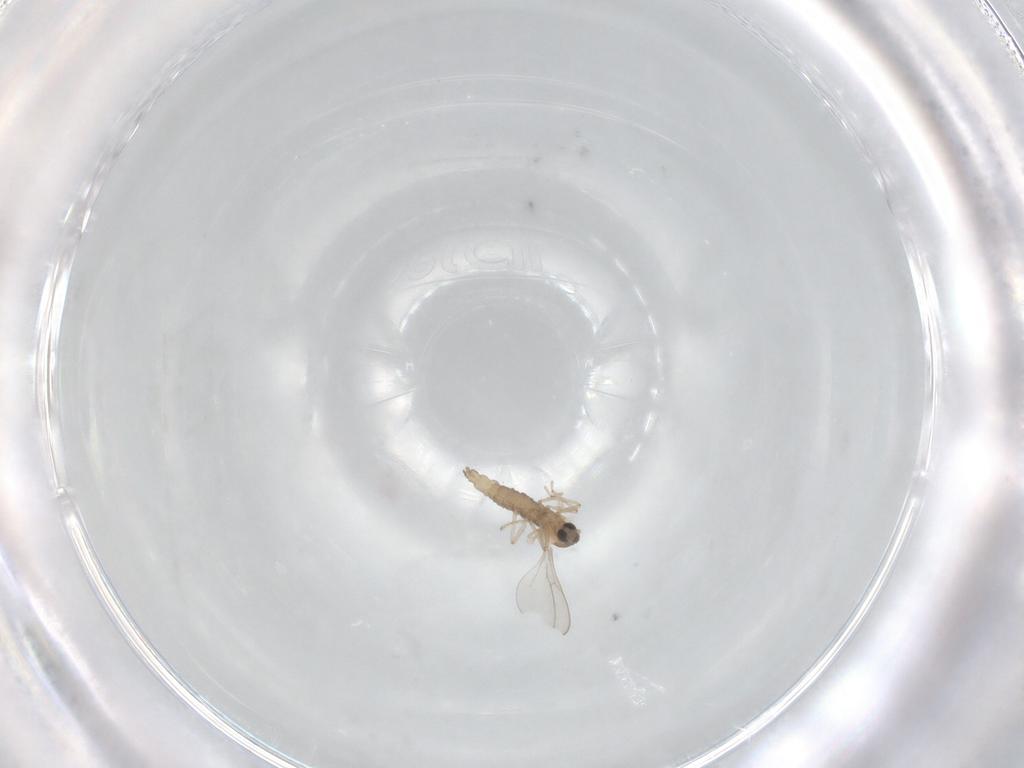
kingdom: Animalia
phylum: Arthropoda
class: Insecta
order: Diptera
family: Cecidomyiidae
